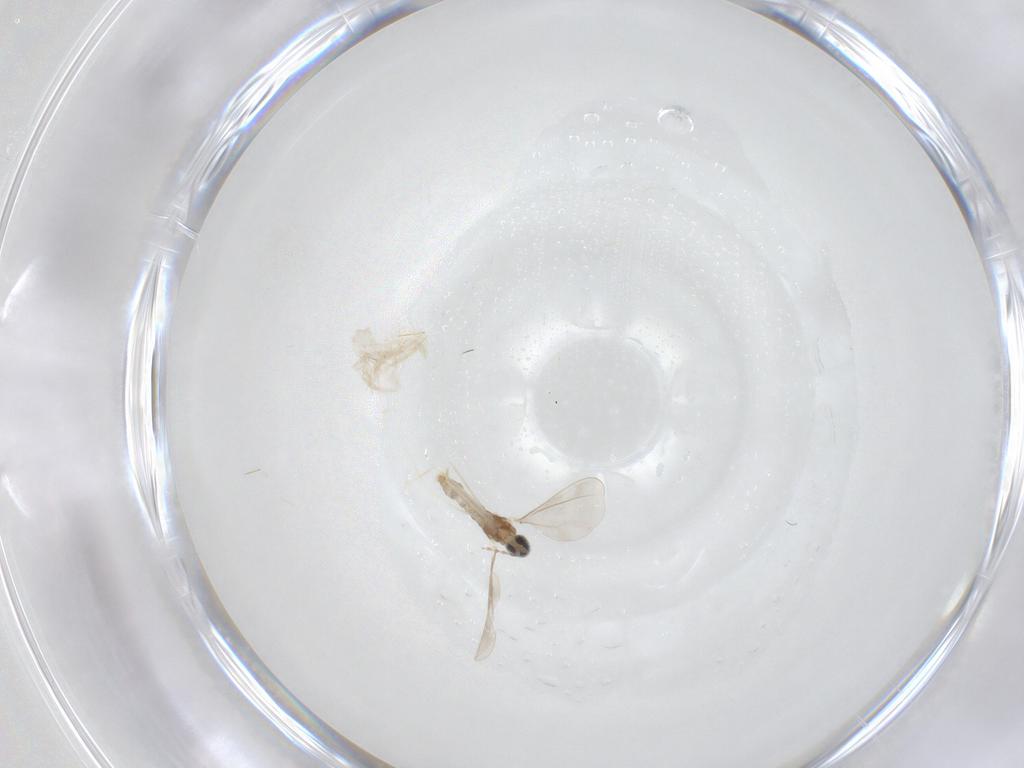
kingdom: Animalia
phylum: Arthropoda
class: Insecta
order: Diptera
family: Cecidomyiidae
